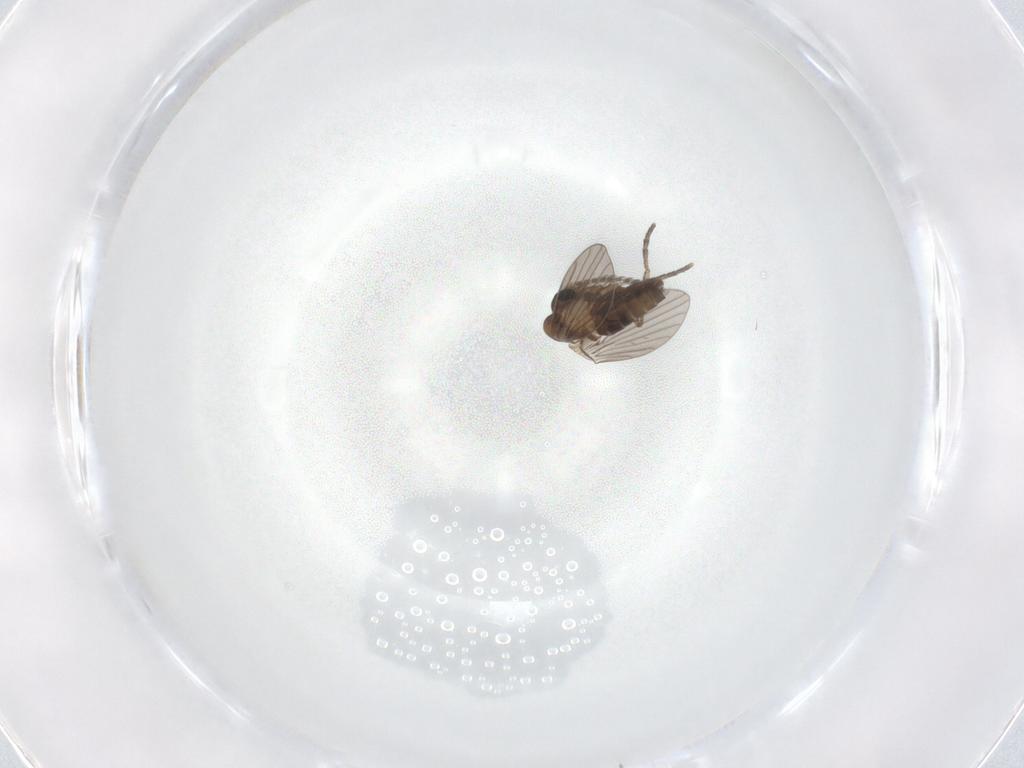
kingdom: Animalia
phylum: Arthropoda
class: Insecta
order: Diptera
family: Psychodidae
